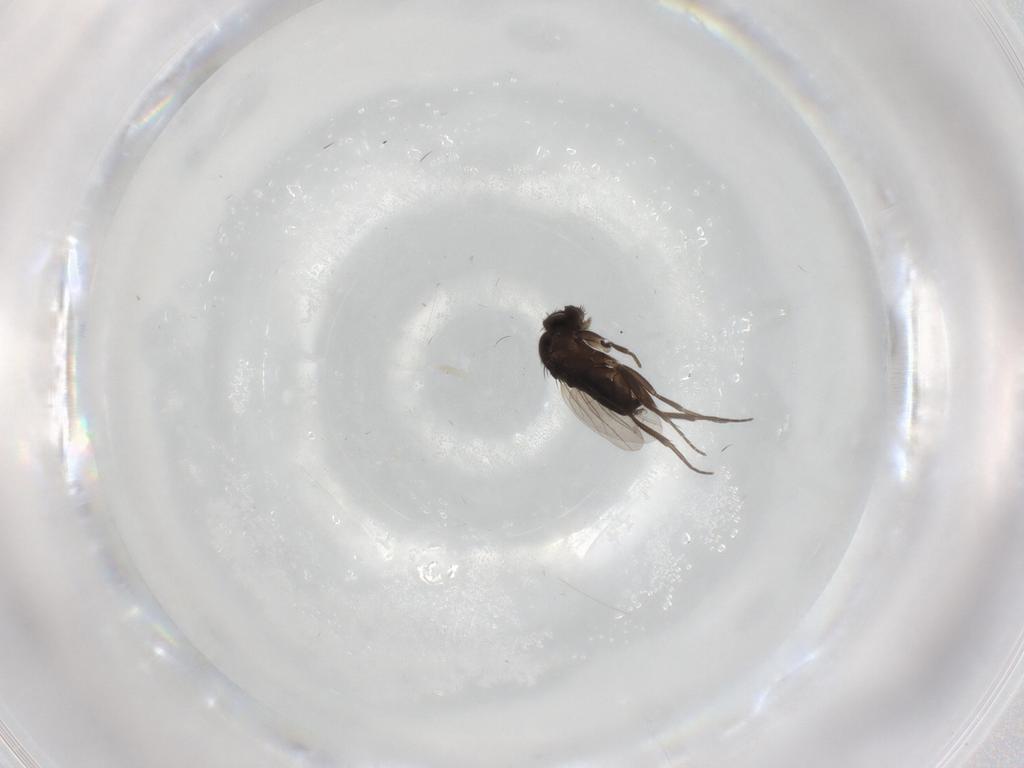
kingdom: Animalia
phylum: Arthropoda
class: Insecta
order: Diptera
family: Phoridae
